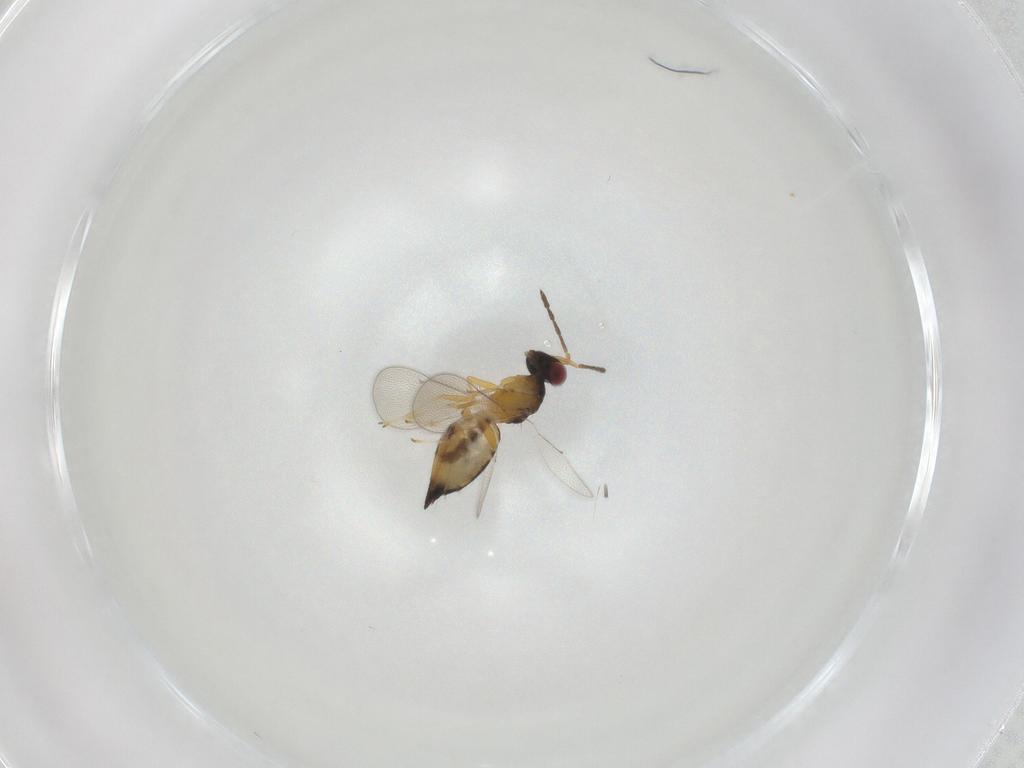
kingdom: Animalia
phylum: Arthropoda
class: Insecta
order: Hymenoptera
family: Eulophidae
